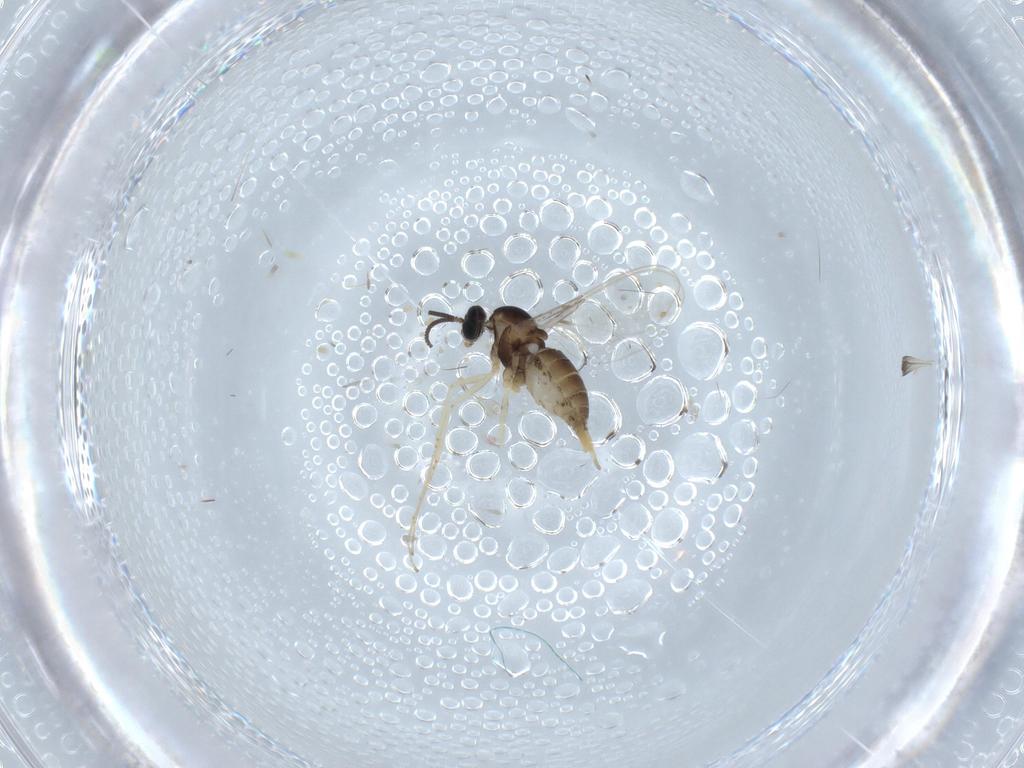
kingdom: Animalia
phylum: Arthropoda
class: Insecta
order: Diptera
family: Cecidomyiidae
